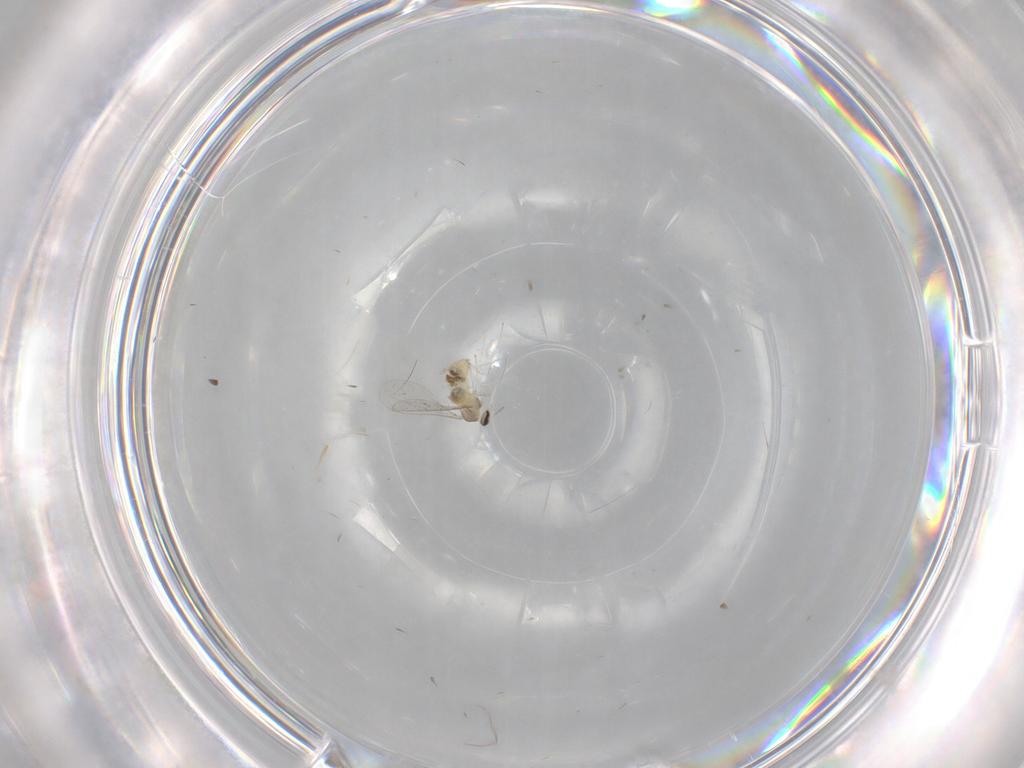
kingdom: Animalia
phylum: Arthropoda
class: Insecta
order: Diptera
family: Cecidomyiidae
